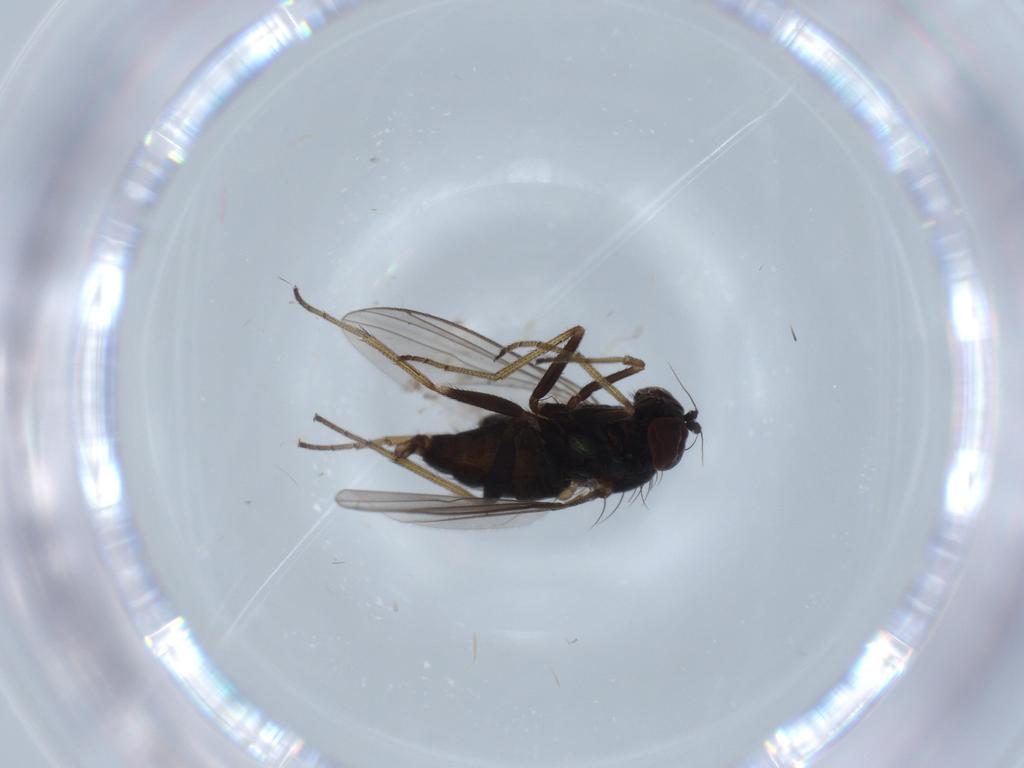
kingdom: Animalia
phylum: Arthropoda
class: Insecta
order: Diptera
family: Dolichopodidae
